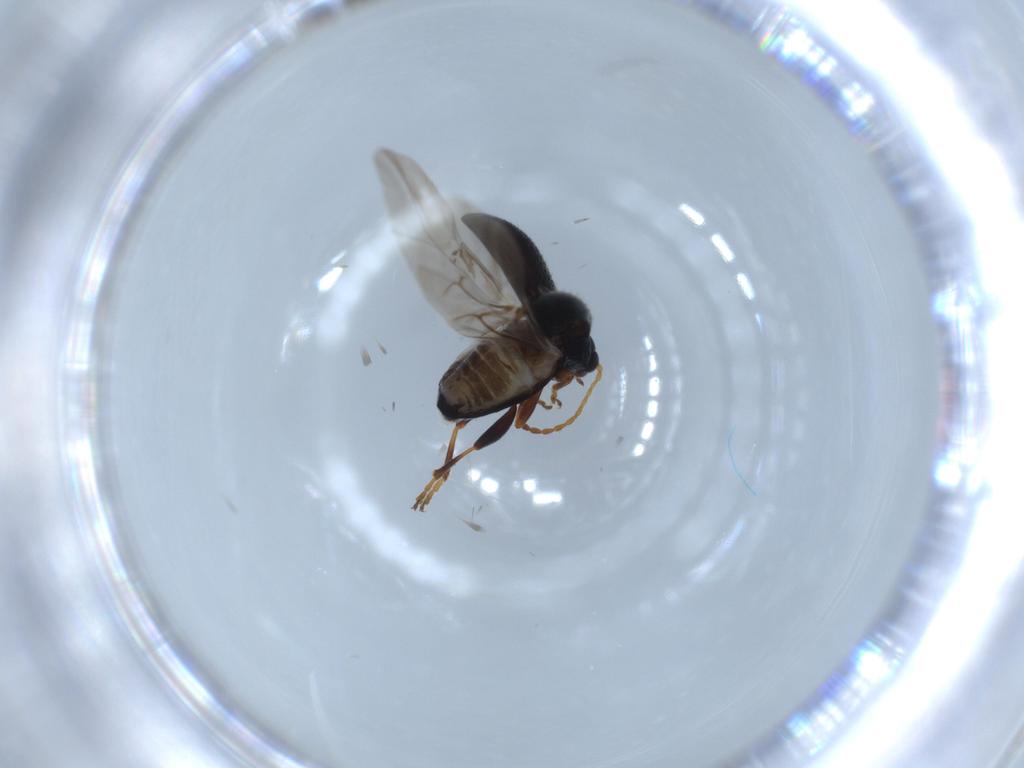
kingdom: Animalia
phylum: Arthropoda
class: Insecta
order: Coleoptera
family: Chrysomelidae
